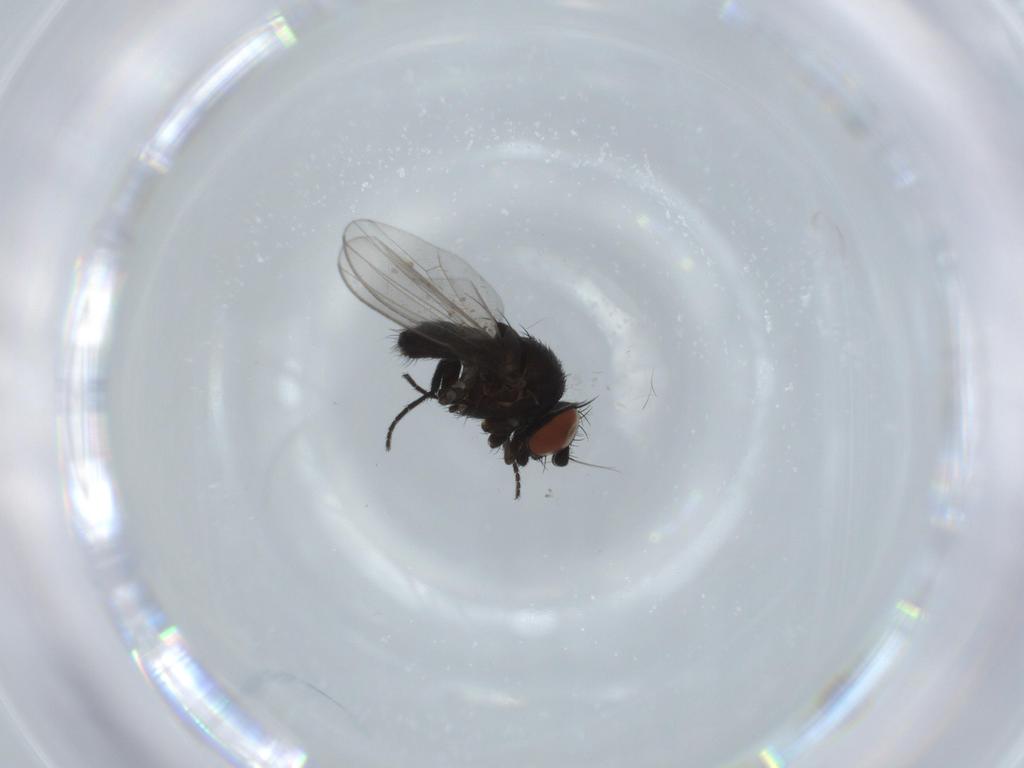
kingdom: Animalia
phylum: Arthropoda
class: Insecta
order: Diptera
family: Milichiidae
